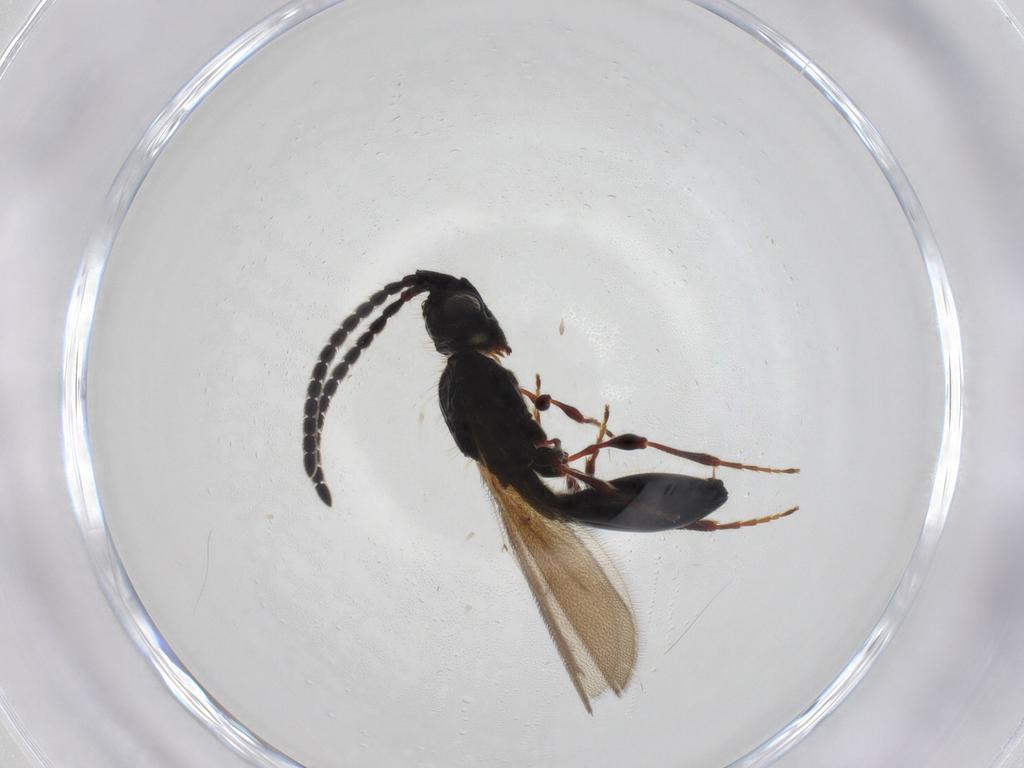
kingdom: Animalia
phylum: Arthropoda
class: Insecta
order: Hymenoptera
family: Diapriidae
